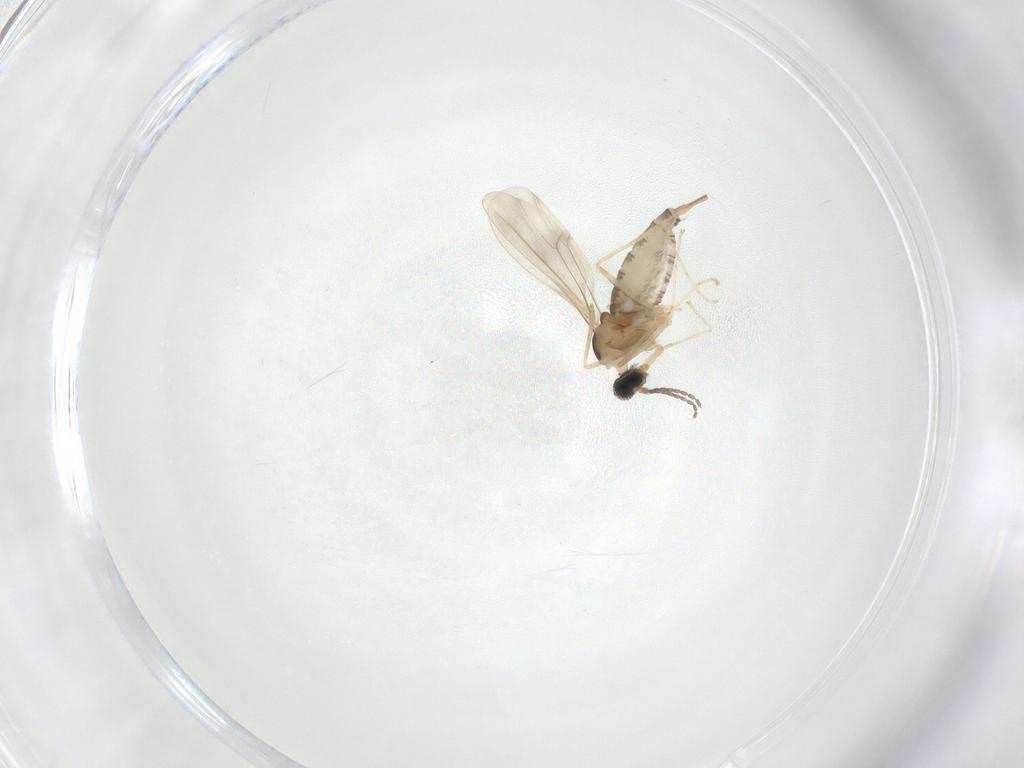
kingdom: Animalia
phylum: Arthropoda
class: Insecta
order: Diptera
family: Cecidomyiidae
